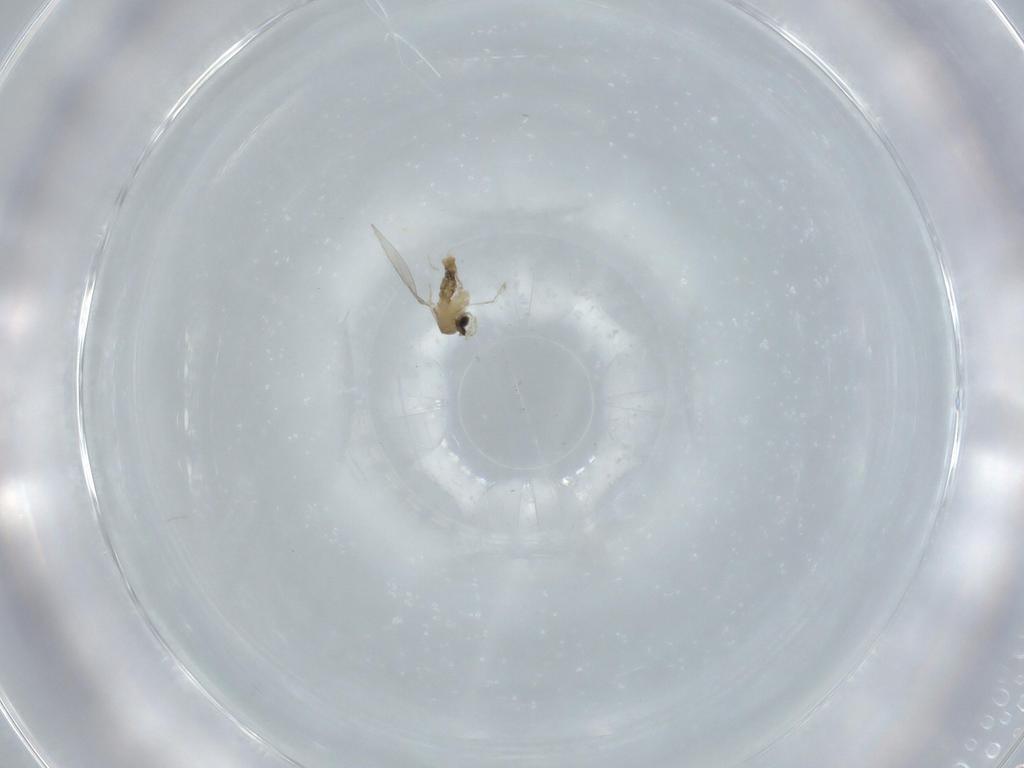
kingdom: Animalia
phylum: Arthropoda
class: Insecta
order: Diptera
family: Cecidomyiidae
